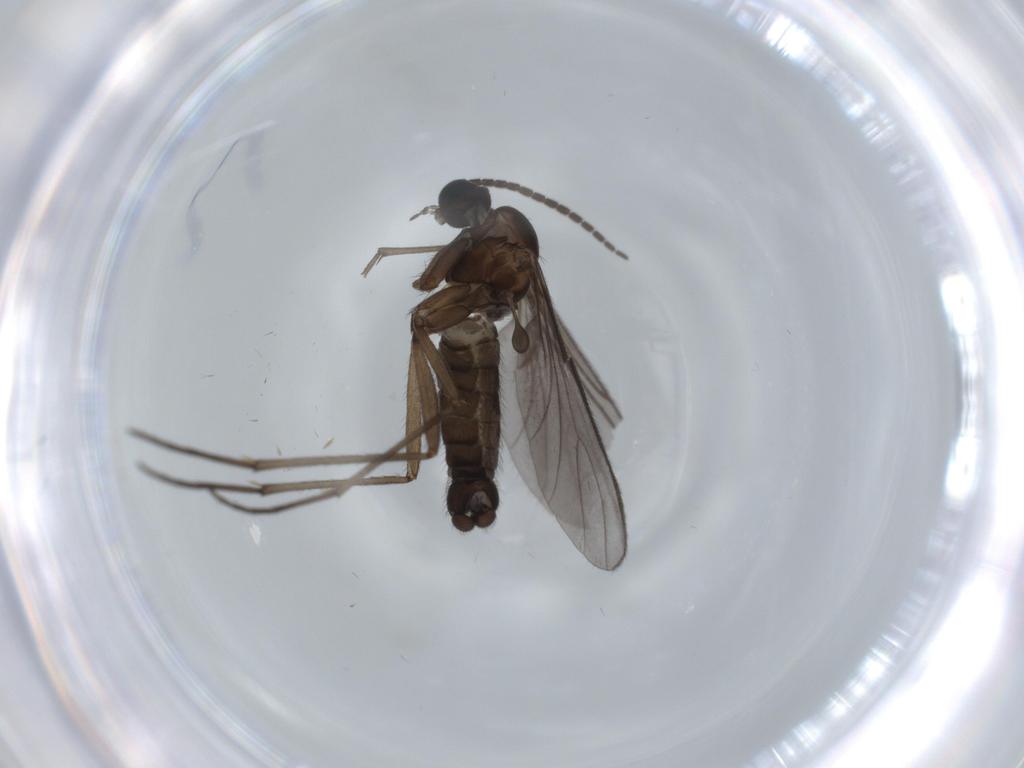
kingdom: Animalia
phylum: Arthropoda
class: Insecta
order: Diptera
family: Sciaridae
